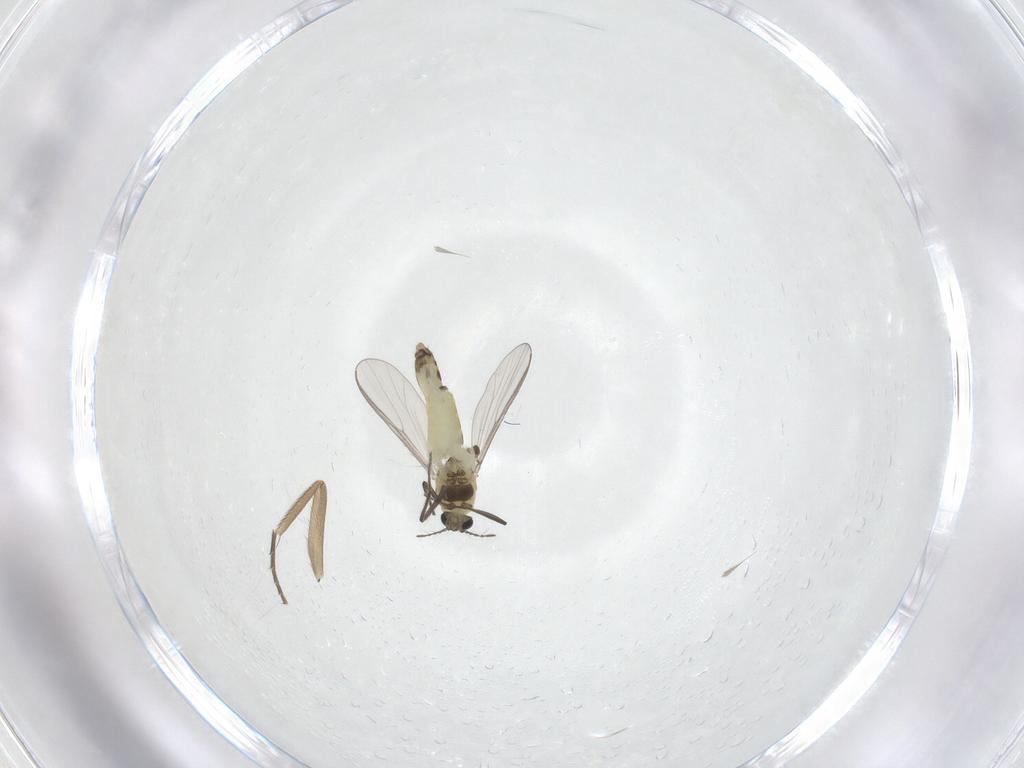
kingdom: Animalia
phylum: Arthropoda
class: Insecta
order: Diptera
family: Chironomidae
